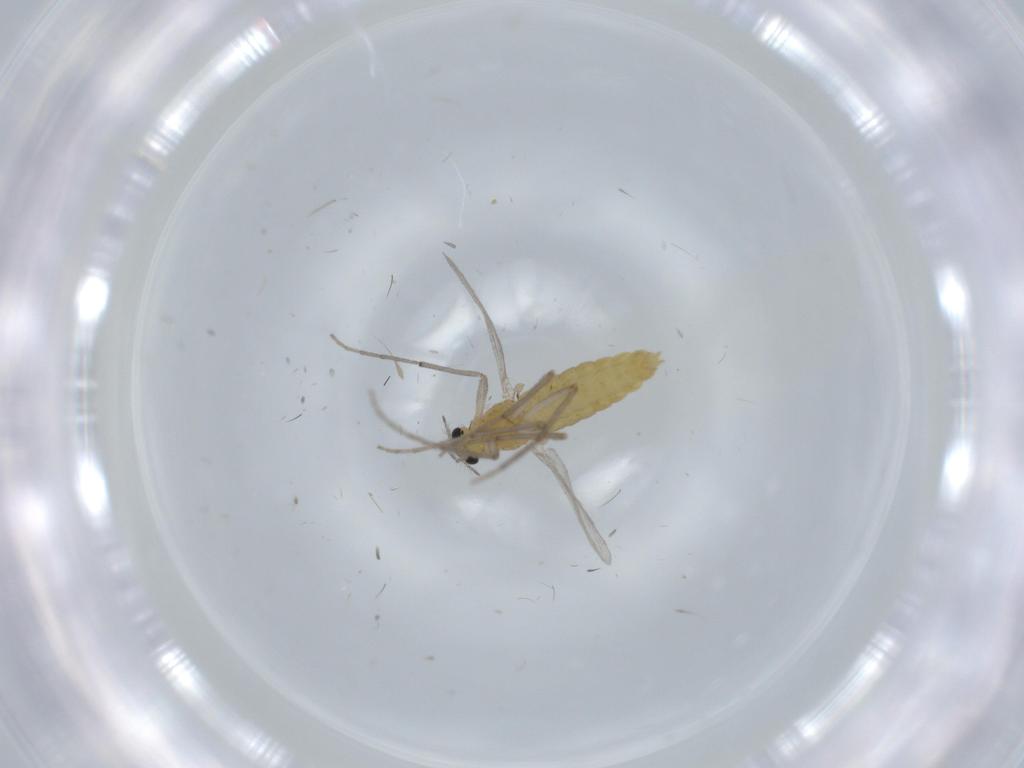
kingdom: Animalia
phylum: Arthropoda
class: Insecta
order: Diptera
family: Chironomidae
